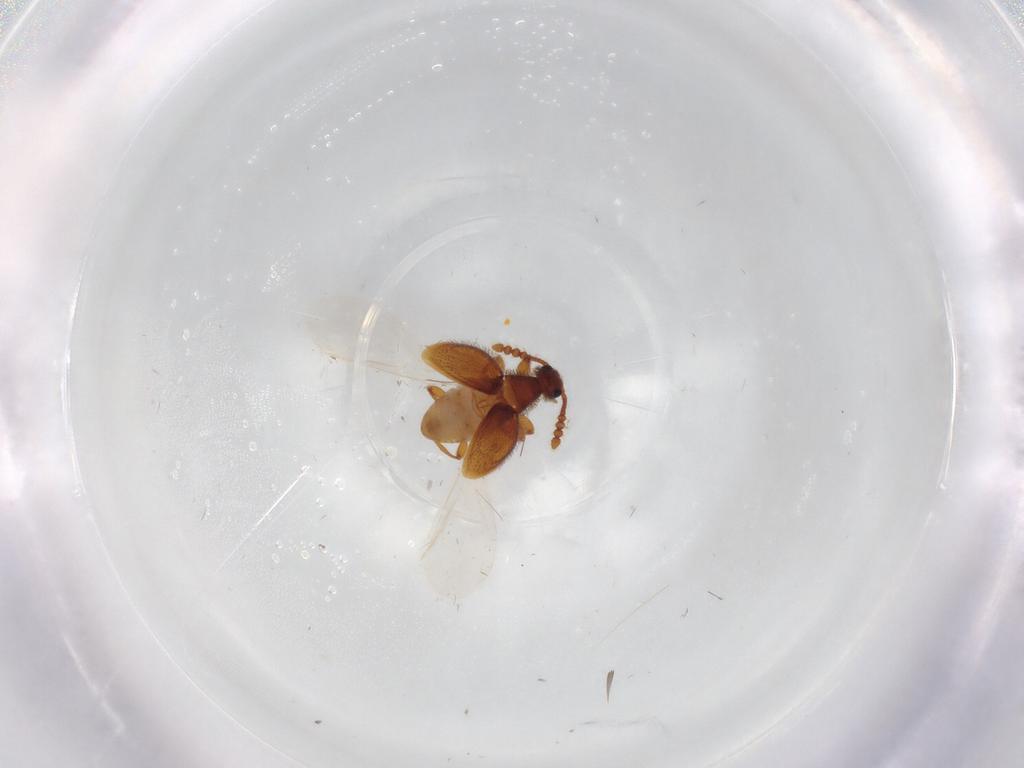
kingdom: Animalia
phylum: Arthropoda
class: Insecta
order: Coleoptera
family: Staphylinidae
